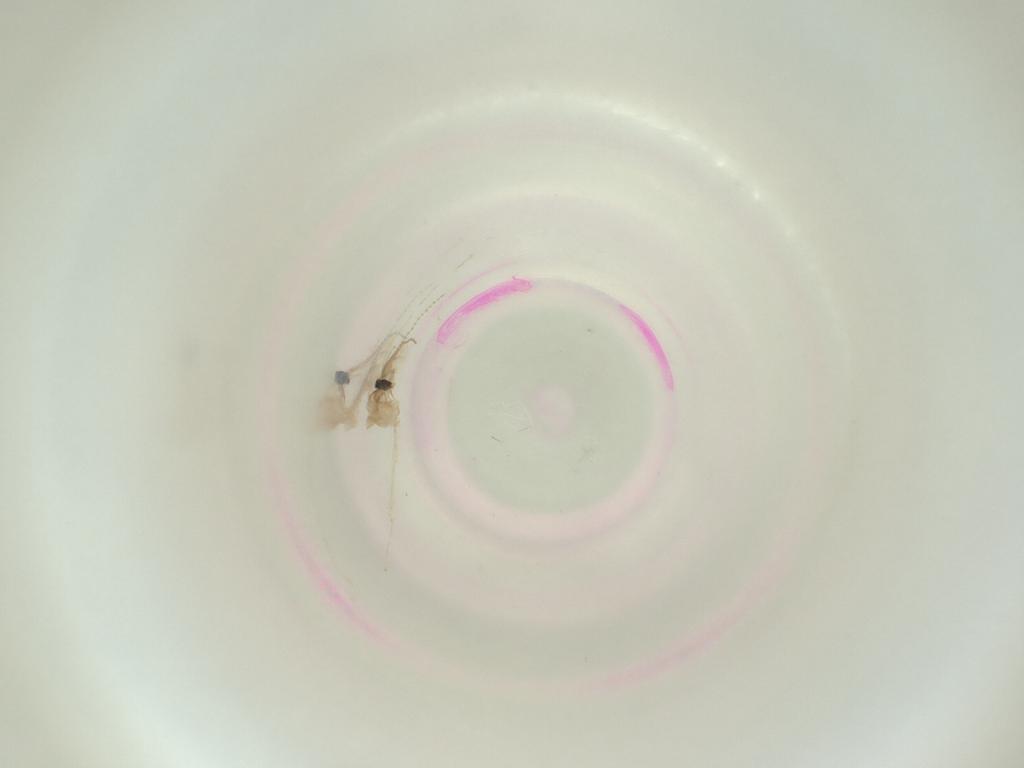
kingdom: Animalia
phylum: Arthropoda
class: Insecta
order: Diptera
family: Cecidomyiidae
